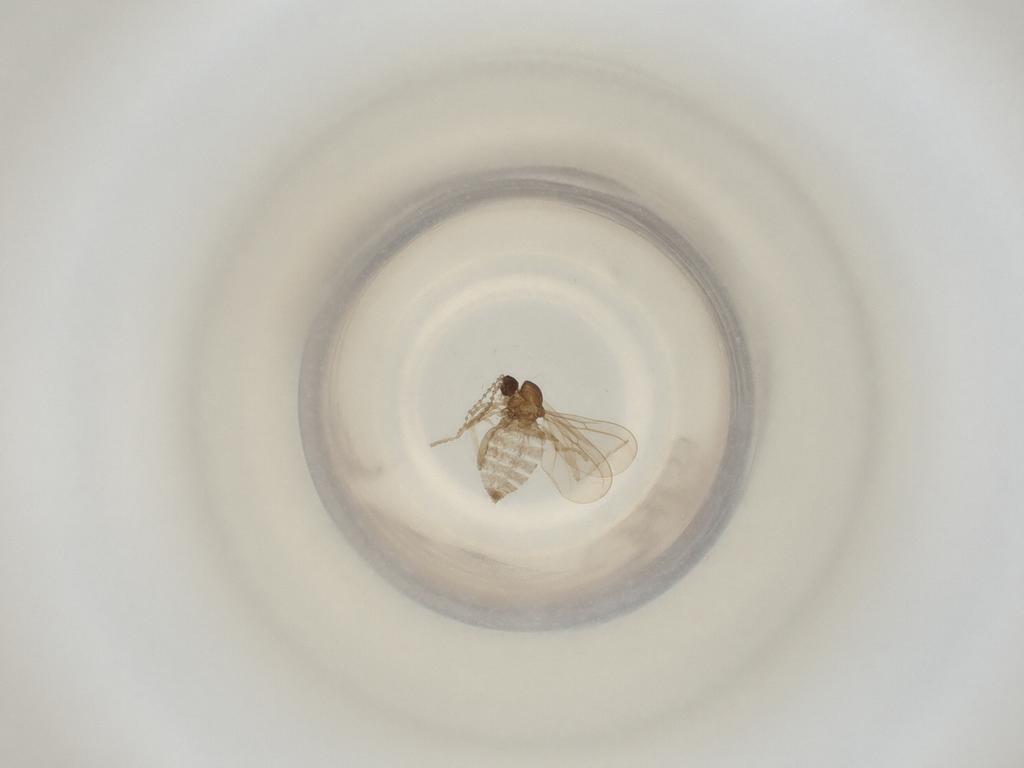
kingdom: Animalia
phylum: Arthropoda
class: Insecta
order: Diptera
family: Cecidomyiidae
